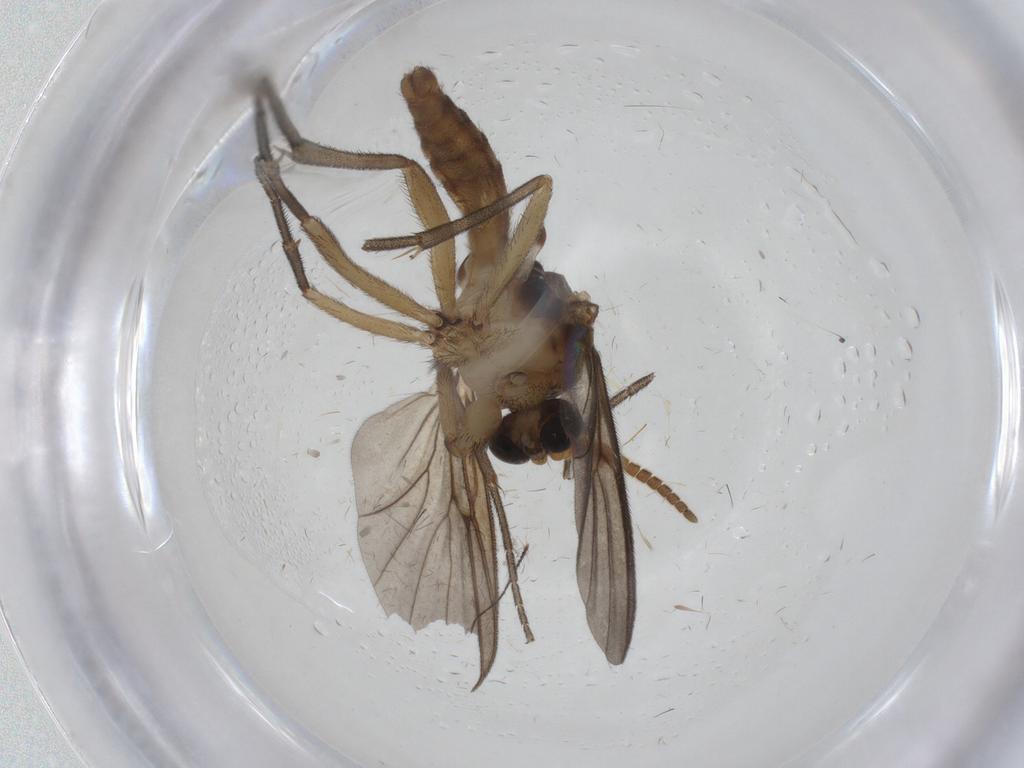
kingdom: Animalia
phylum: Arthropoda
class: Insecta
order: Diptera
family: Cecidomyiidae
